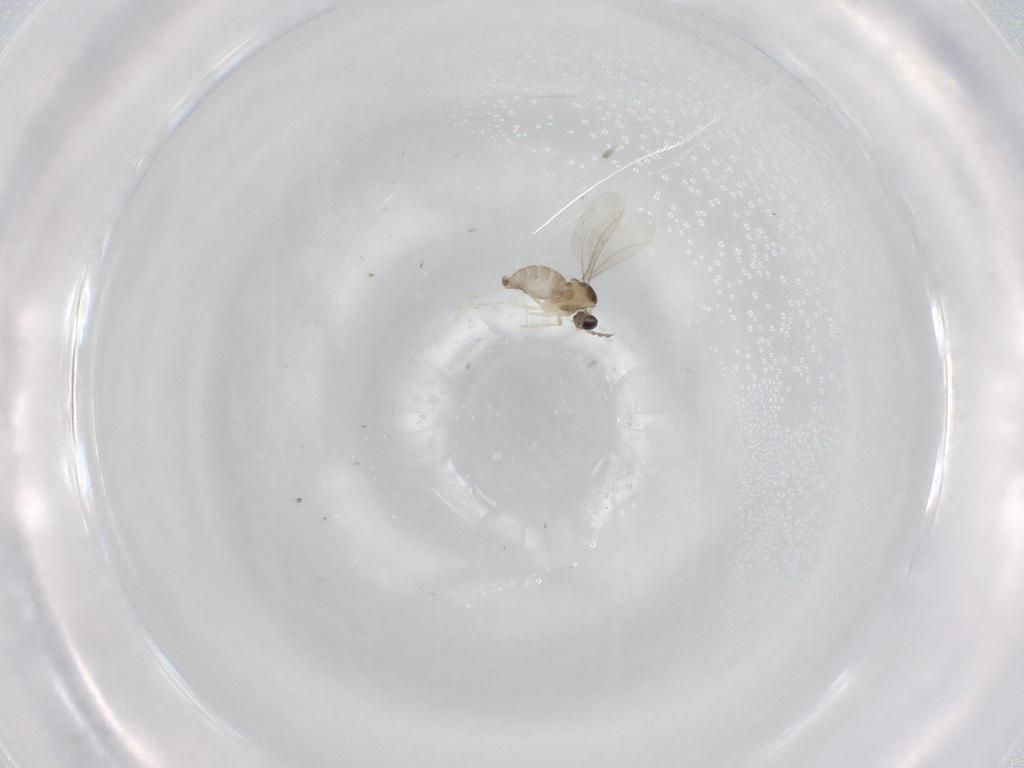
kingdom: Animalia
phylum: Arthropoda
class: Insecta
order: Diptera
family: Cecidomyiidae
